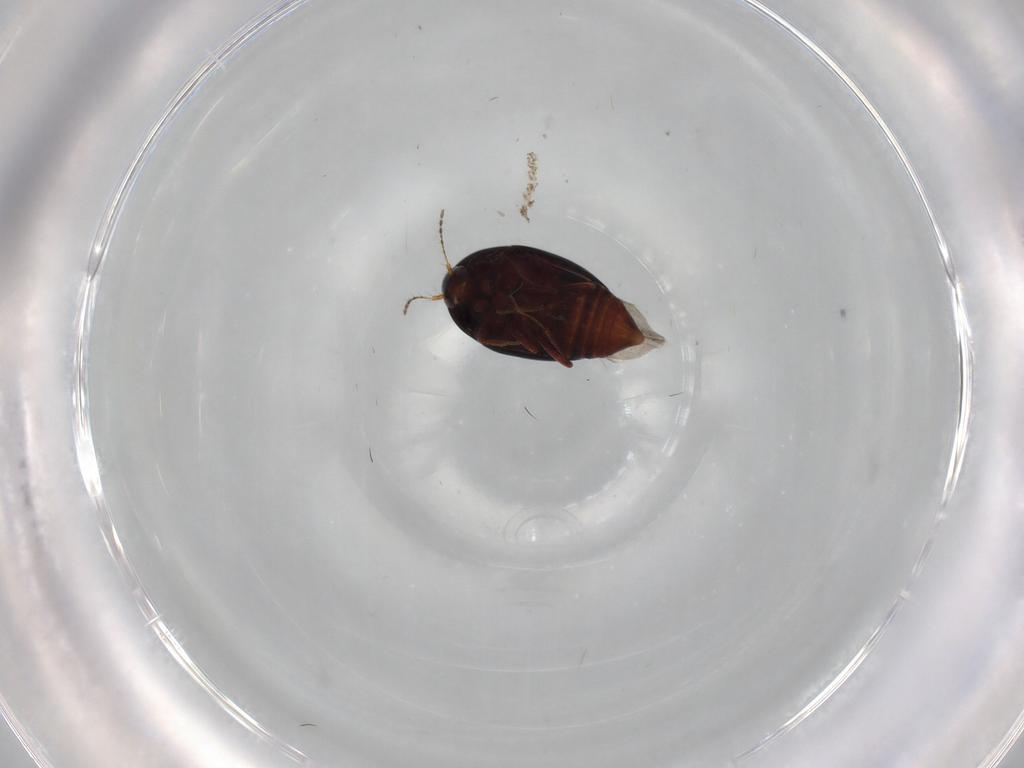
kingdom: Animalia
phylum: Arthropoda
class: Insecta
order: Coleoptera
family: Staphylinidae
